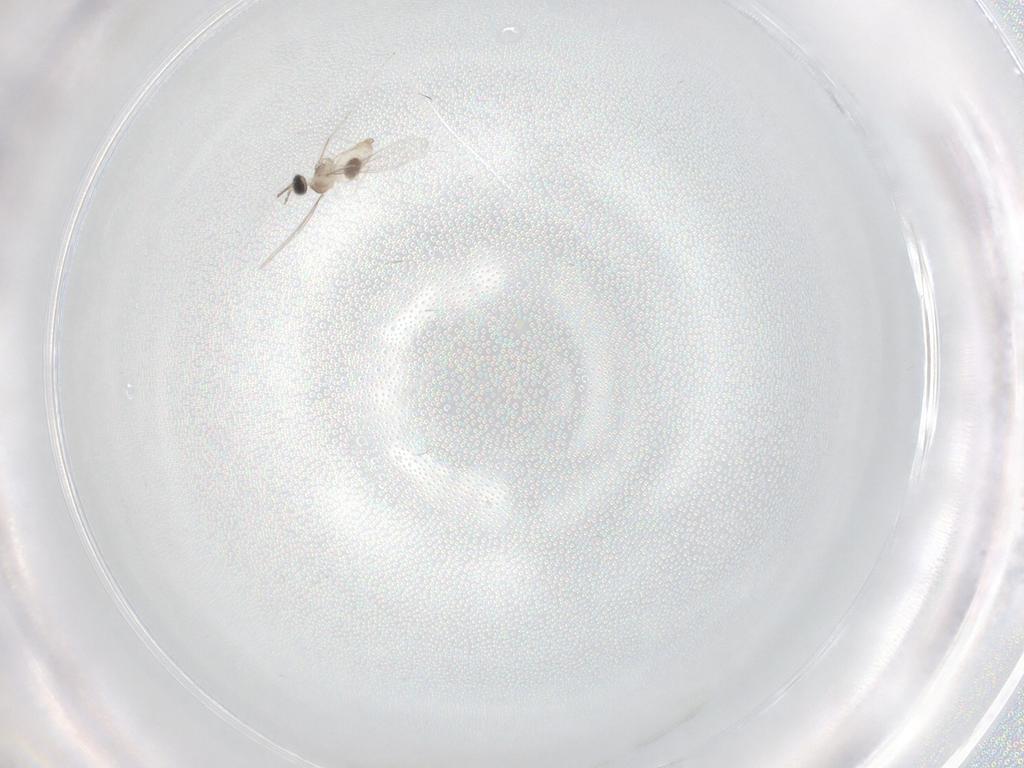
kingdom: Animalia
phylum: Arthropoda
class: Insecta
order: Diptera
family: Cecidomyiidae
